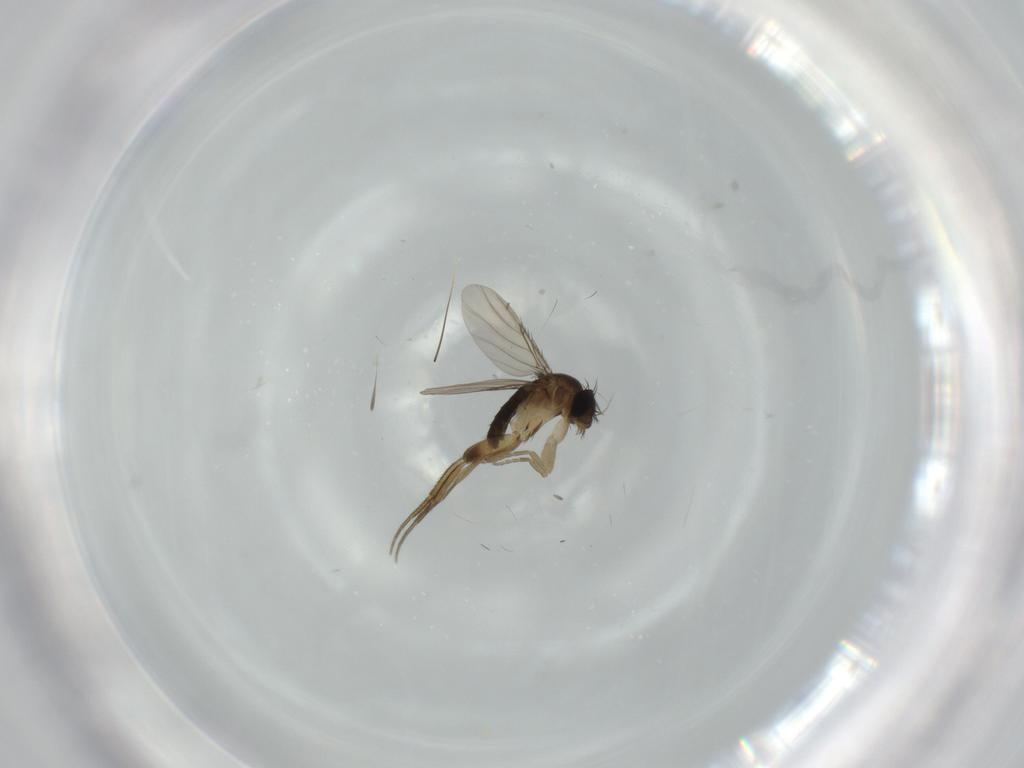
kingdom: Animalia
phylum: Arthropoda
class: Insecta
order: Diptera
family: Phoridae
